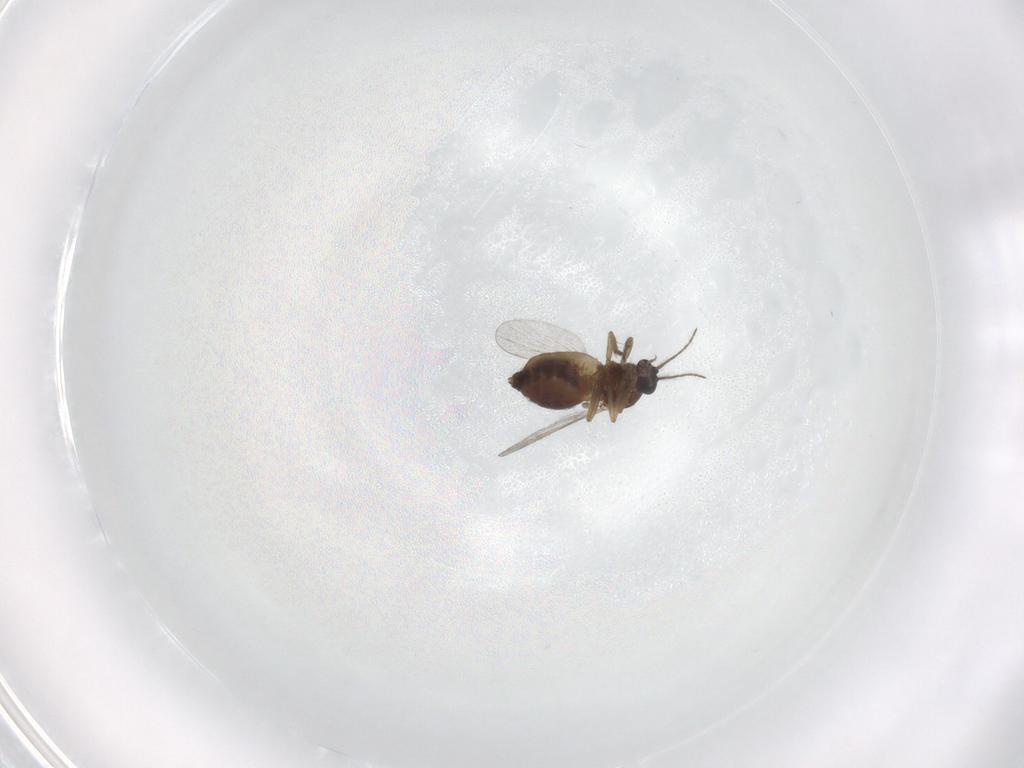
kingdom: Animalia
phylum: Arthropoda
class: Insecta
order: Diptera
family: Ceratopogonidae
